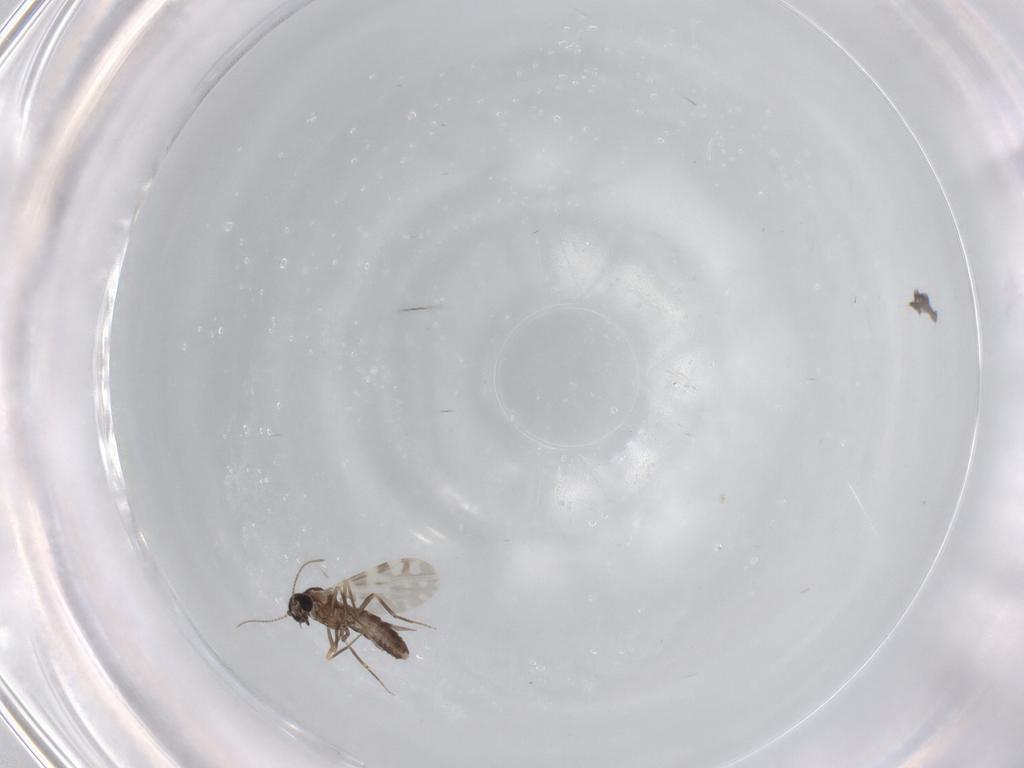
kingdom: Animalia
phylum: Arthropoda
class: Insecta
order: Diptera
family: Ceratopogonidae
